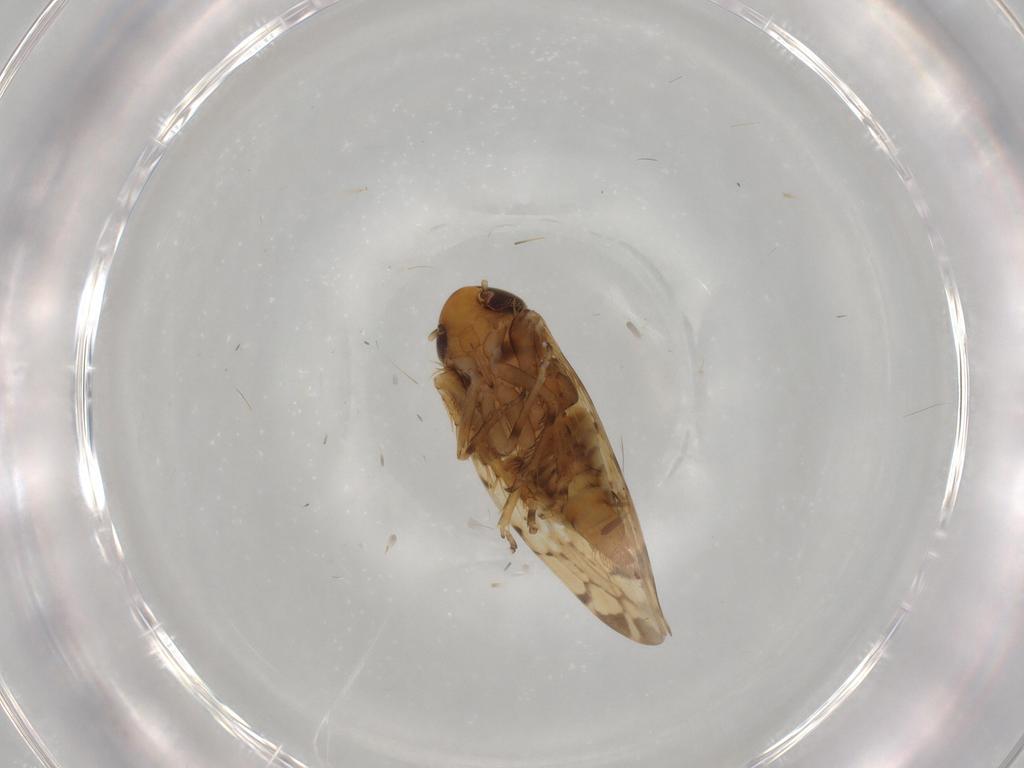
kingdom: Animalia
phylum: Arthropoda
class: Insecta
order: Hemiptera
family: Cicadellidae
